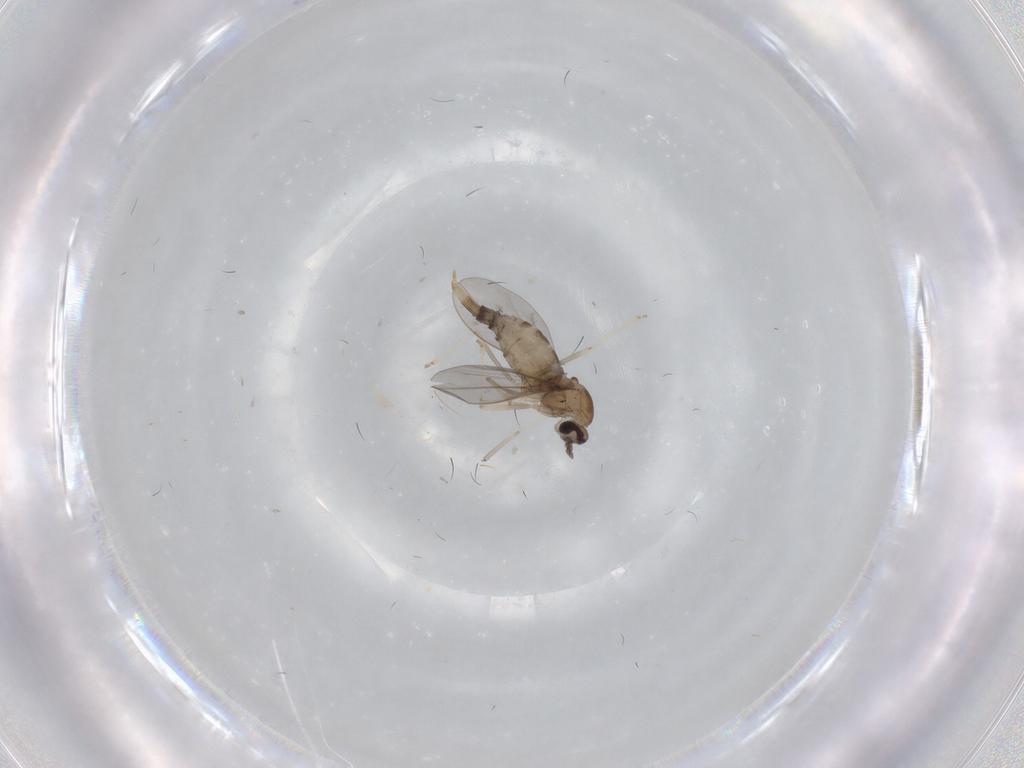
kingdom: Animalia
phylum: Arthropoda
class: Insecta
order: Diptera
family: Cecidomyiidae
